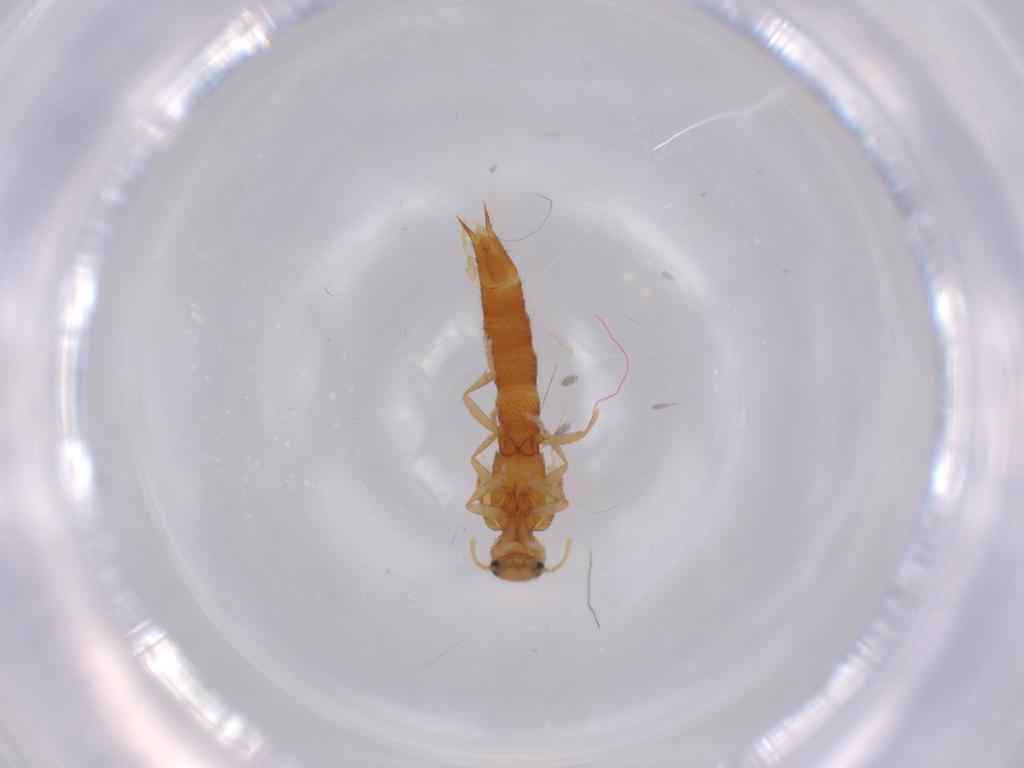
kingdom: Animalia
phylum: Arthropoda
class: Insecta
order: Coleoptera
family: Staphylinidae
